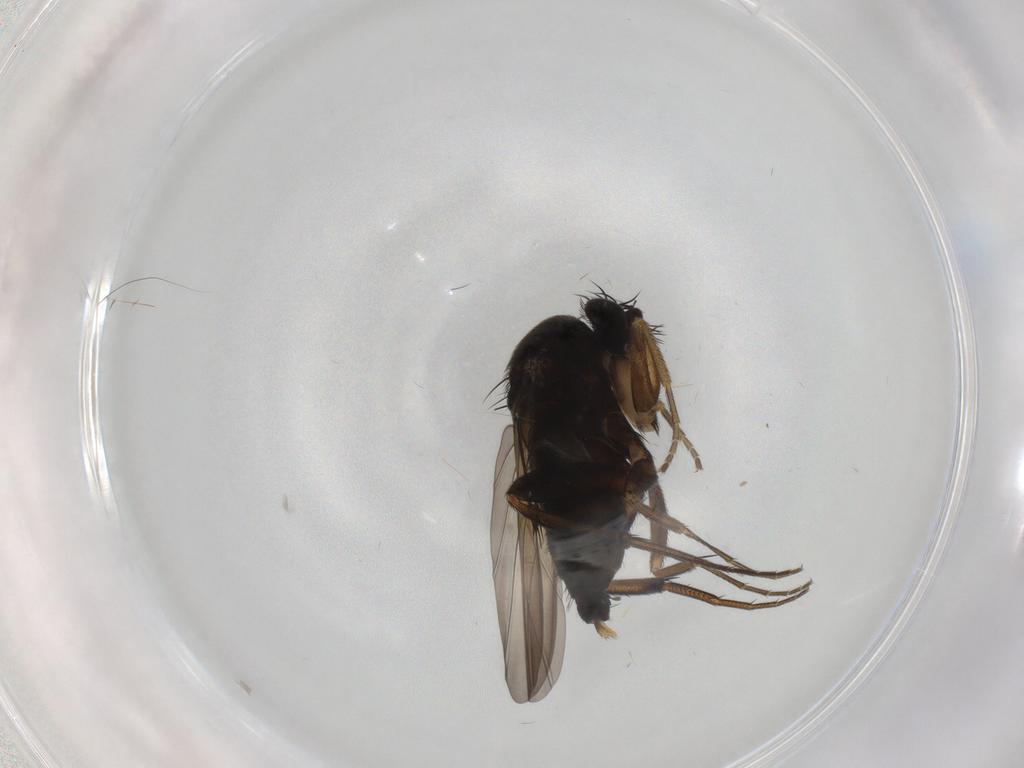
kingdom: Animalia
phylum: Arthropoda
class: Insecta
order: Diptera
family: Phoridae
